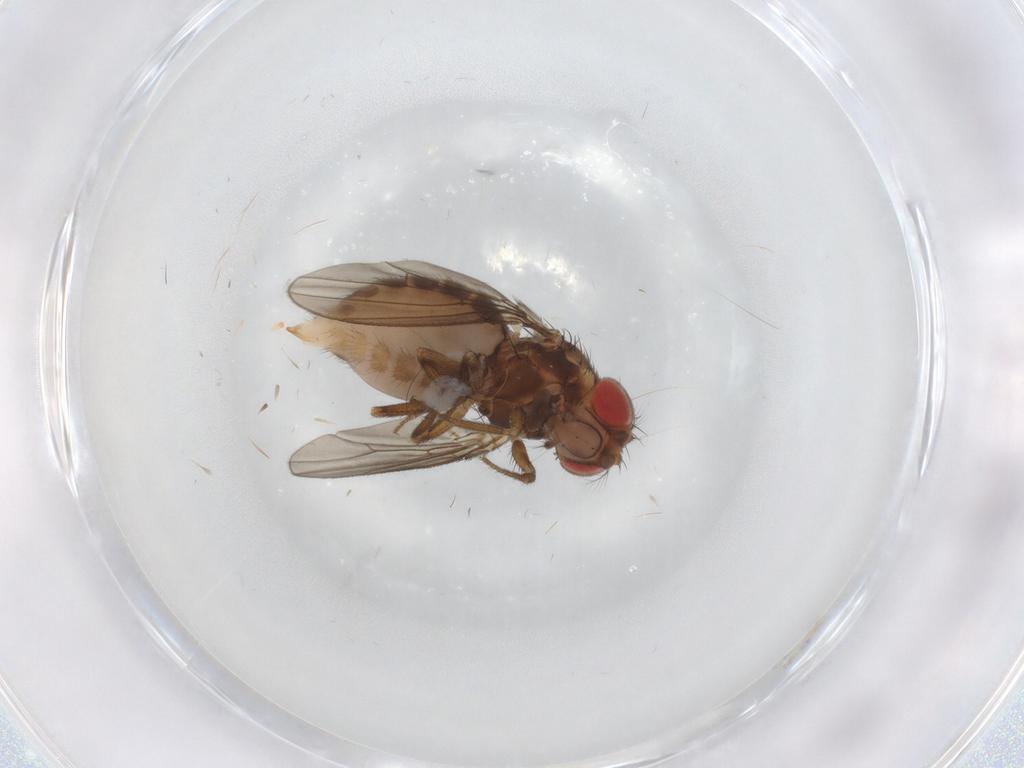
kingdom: Animalia
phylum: Arthropoda
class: Insecta
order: Diptera
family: Drosophilidae
